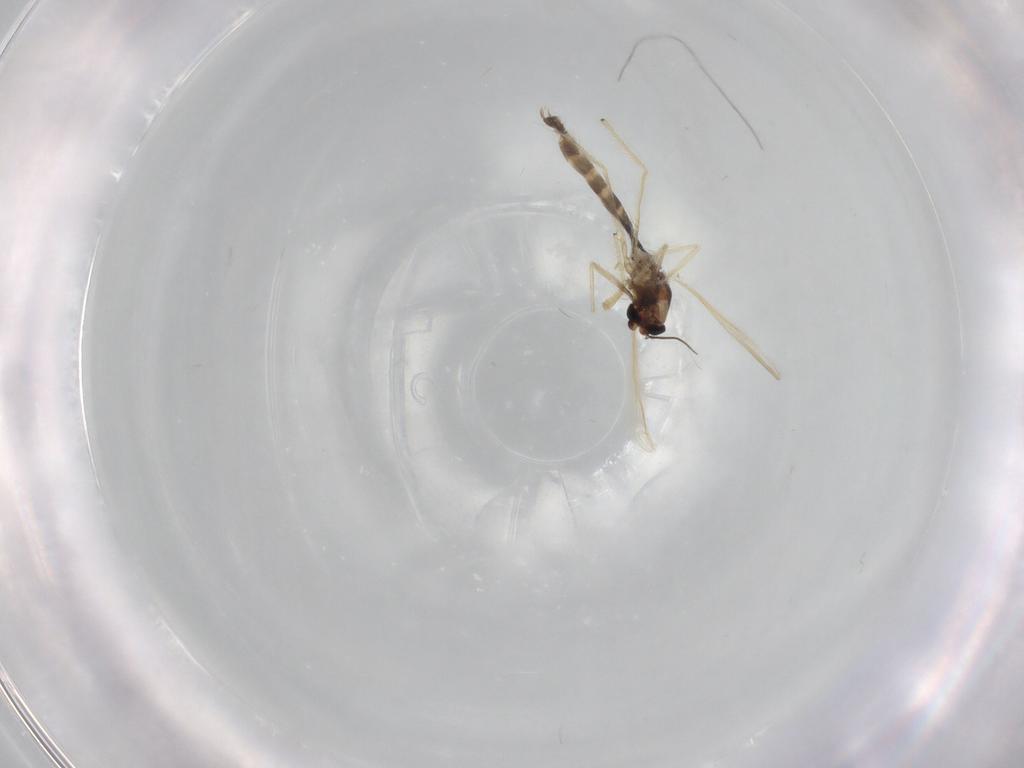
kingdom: Animalia
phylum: Arthropoda
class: Insecta
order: Diptera
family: Chironomidae
